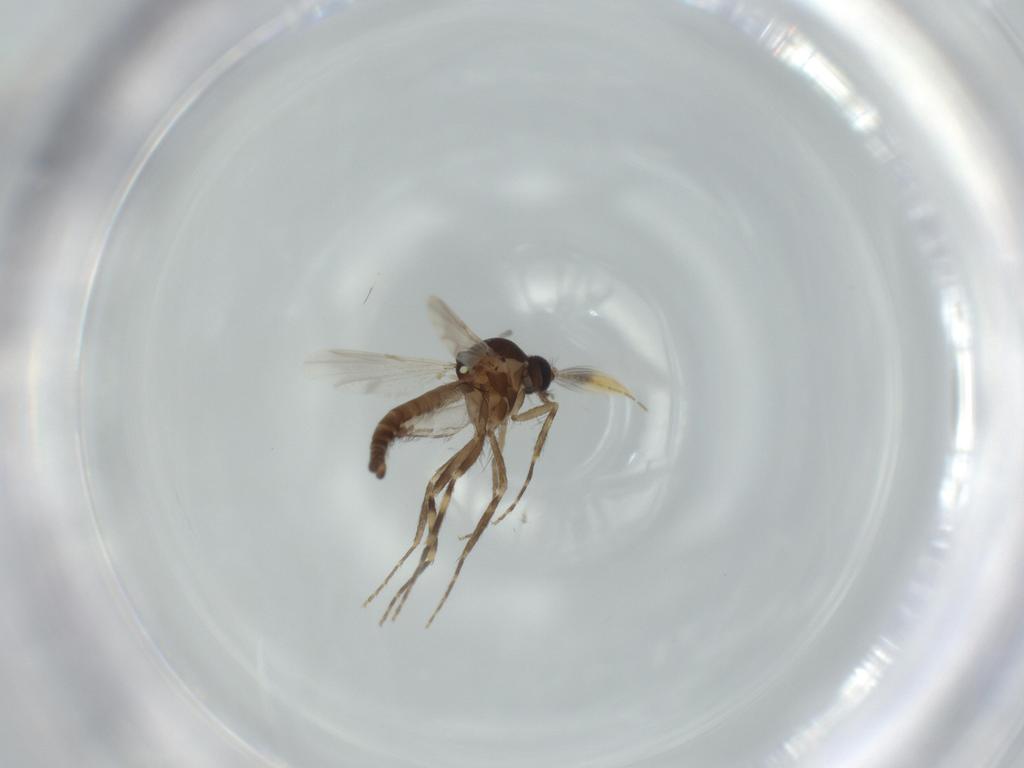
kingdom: Animalia
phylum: Arthropoda
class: Insecta
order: Diptera
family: Ceratopogonidae
